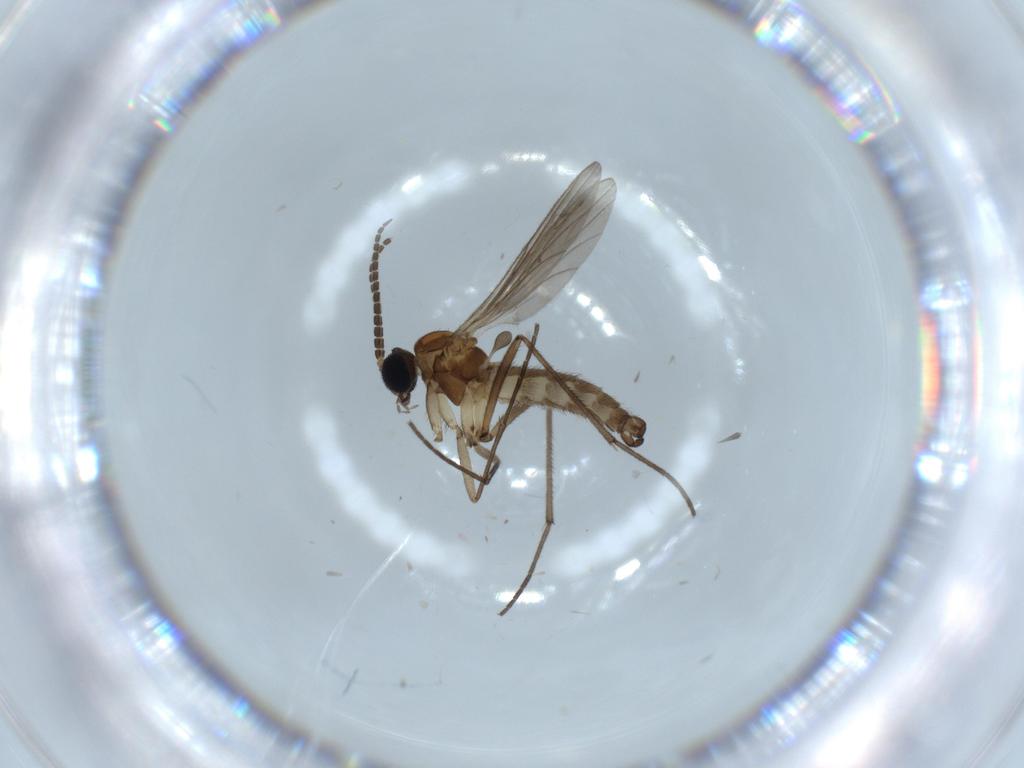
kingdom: Animalia
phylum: Arthropoda
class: Insecta
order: Diptera
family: Sciaridae
